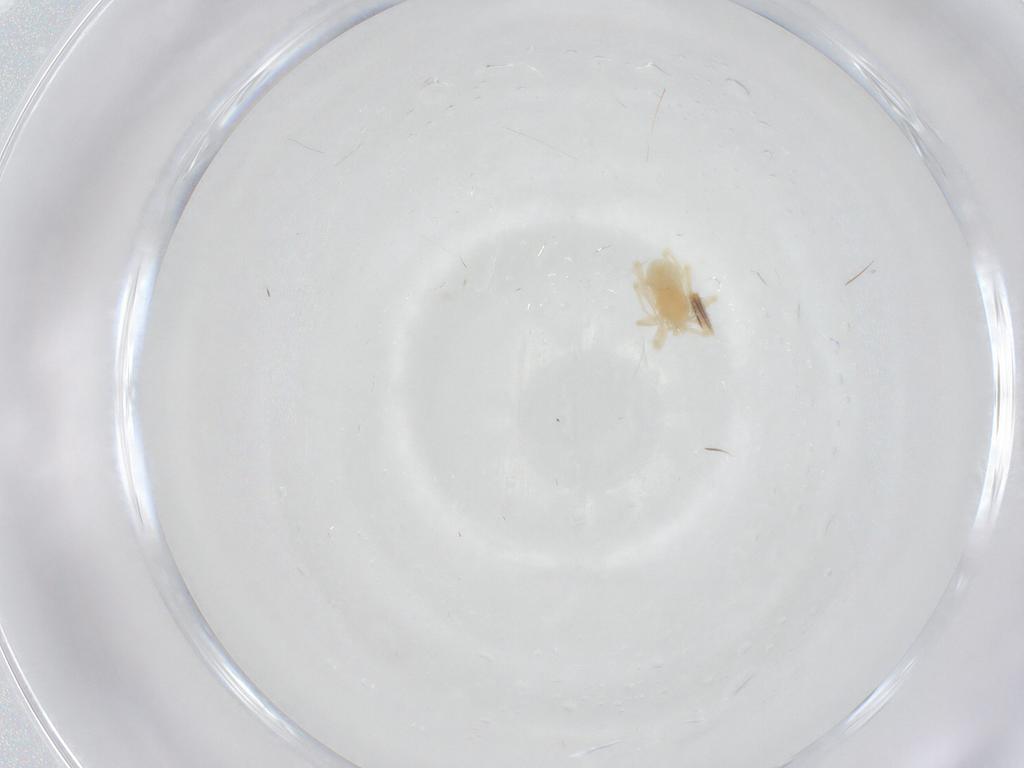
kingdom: Animalia
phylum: Arthropoda
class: Arachnida
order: Trombidiformes
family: Anystidae
